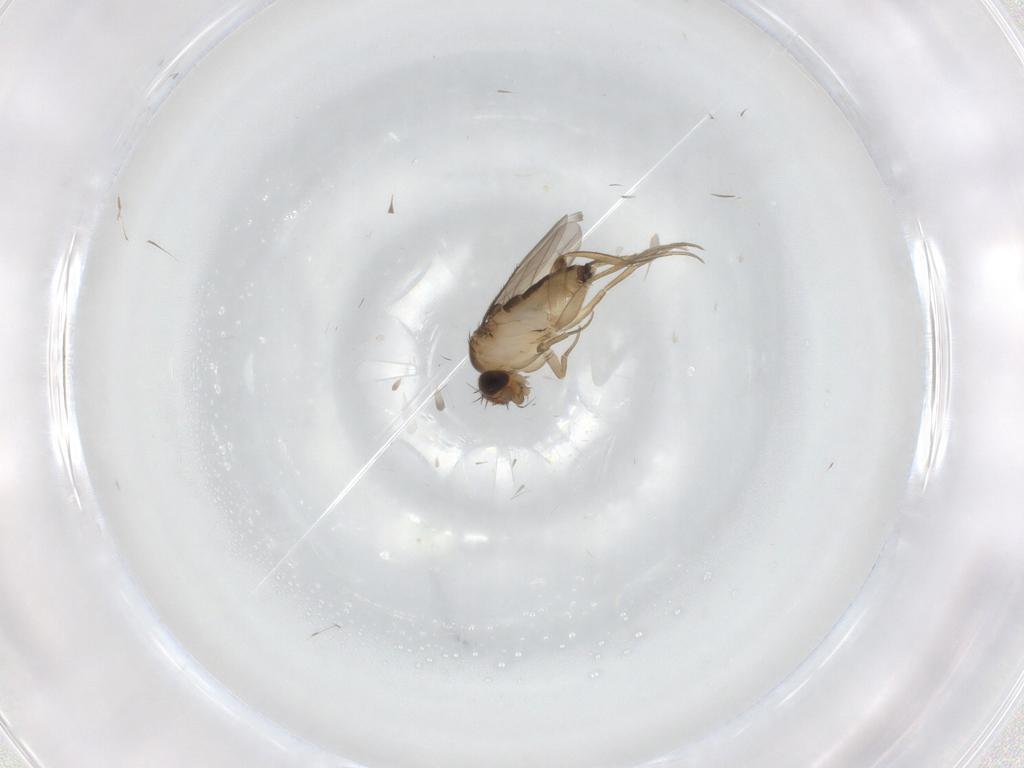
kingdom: Animalia
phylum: Arthropoda
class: Insecta
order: Diptera
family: Phoridae
